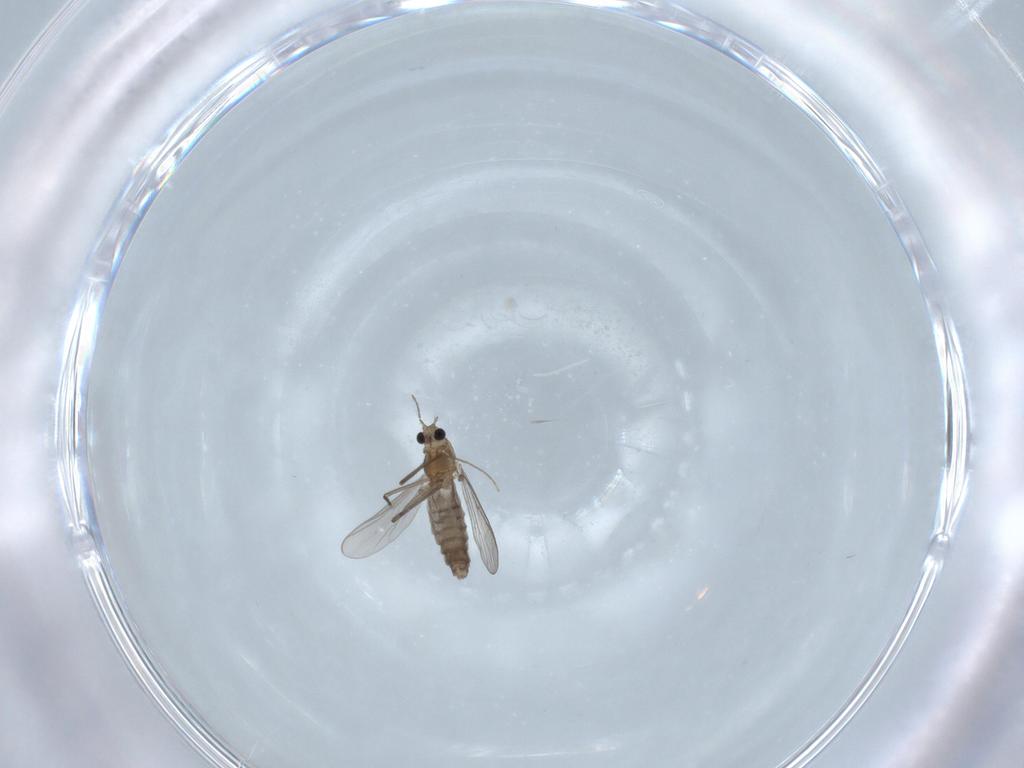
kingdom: Animalia
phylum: Arthropoda
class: Insecta
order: Diptera
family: Chironomidae
